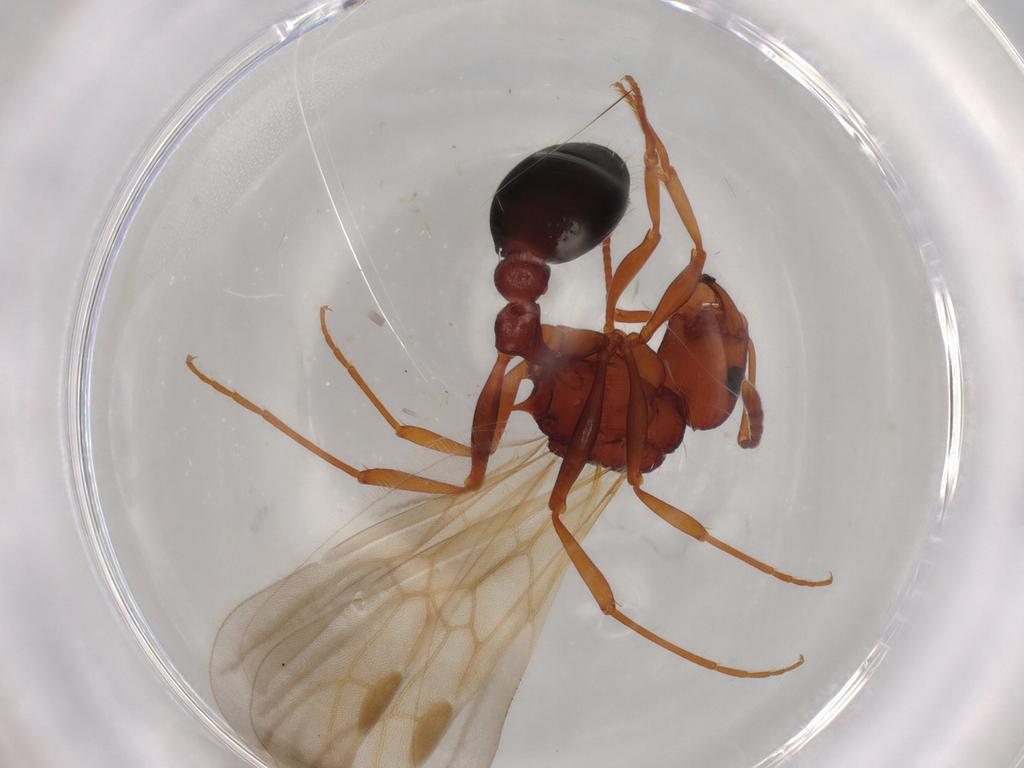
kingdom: Animalia
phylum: Arthropoda
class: Insecta
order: Hymenoptera
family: Formicidae
